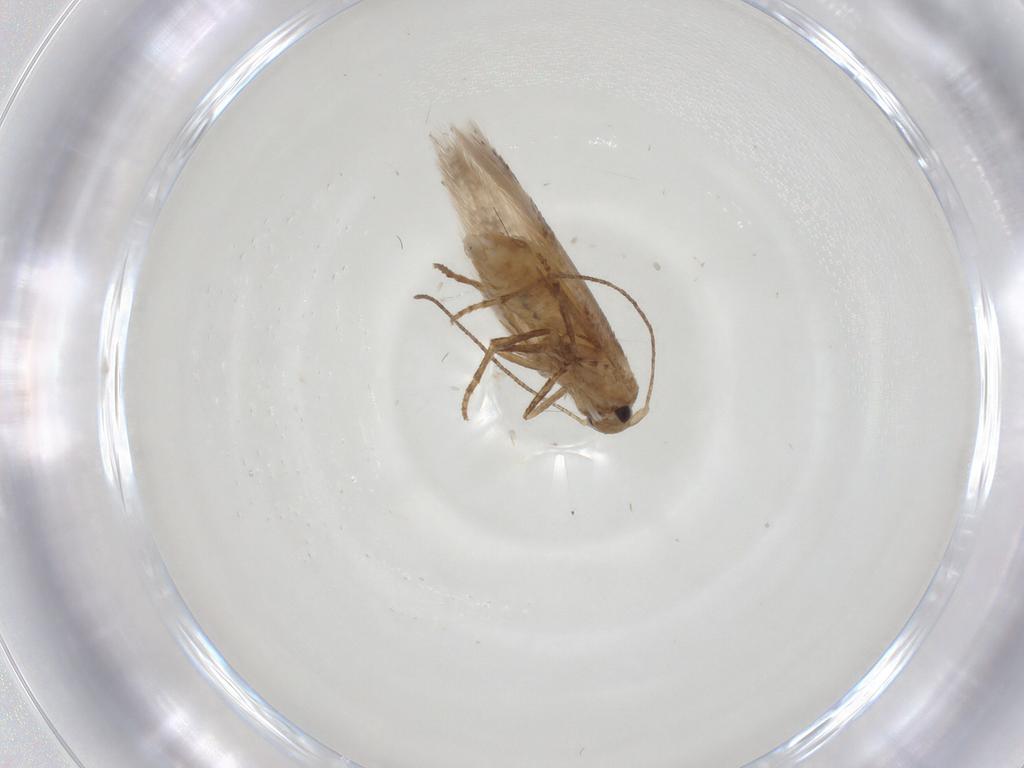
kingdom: Animalia
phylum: Arthropoda
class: Insecta
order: Lepidoptera
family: Bucculatricidae
